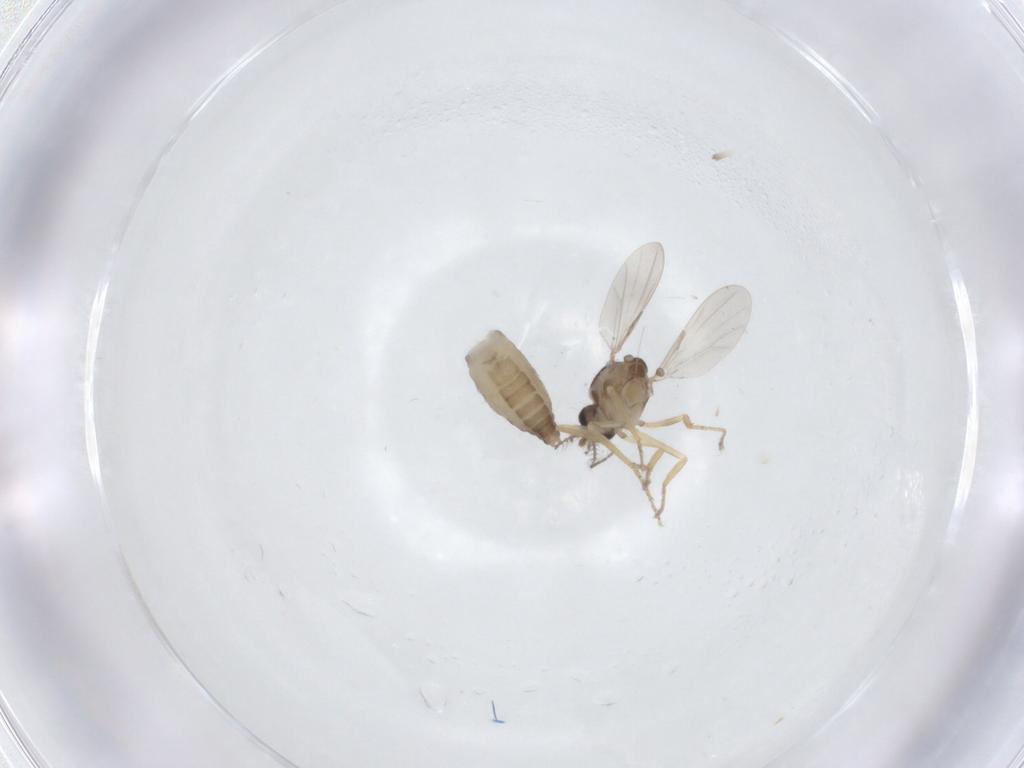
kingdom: Animalia
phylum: Arthropoda
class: Insecta
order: Diptera
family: Ceratopogonidae
